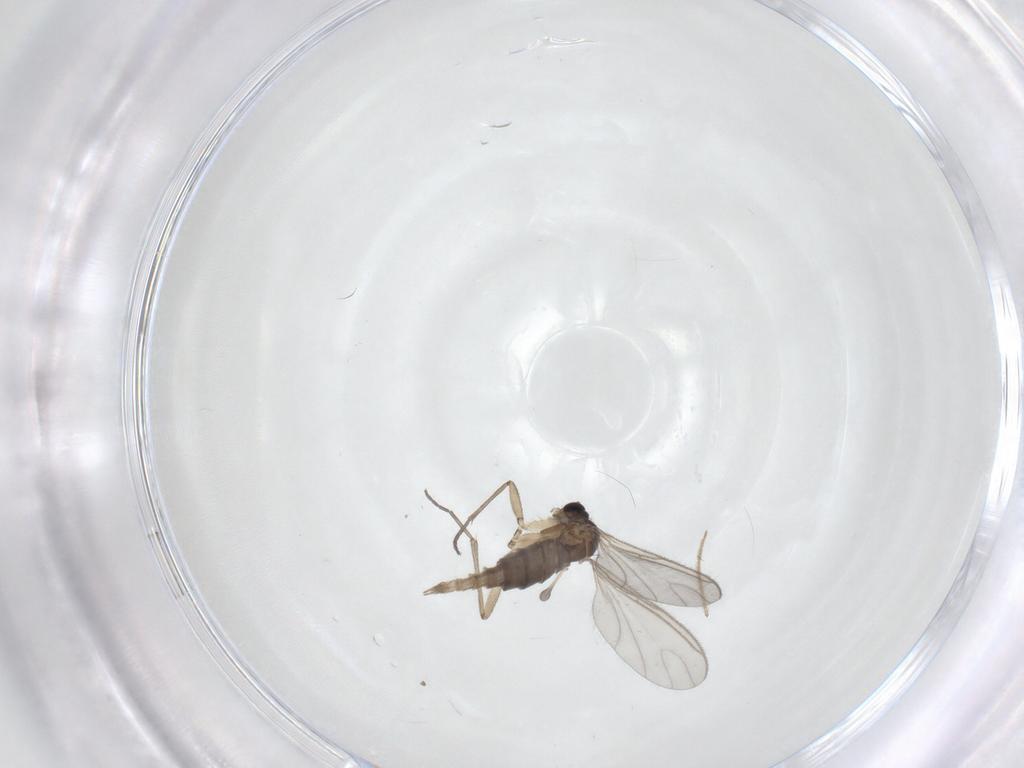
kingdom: Animalia
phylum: Arthropoda
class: Insecta
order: Diptera
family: Sciaridae
